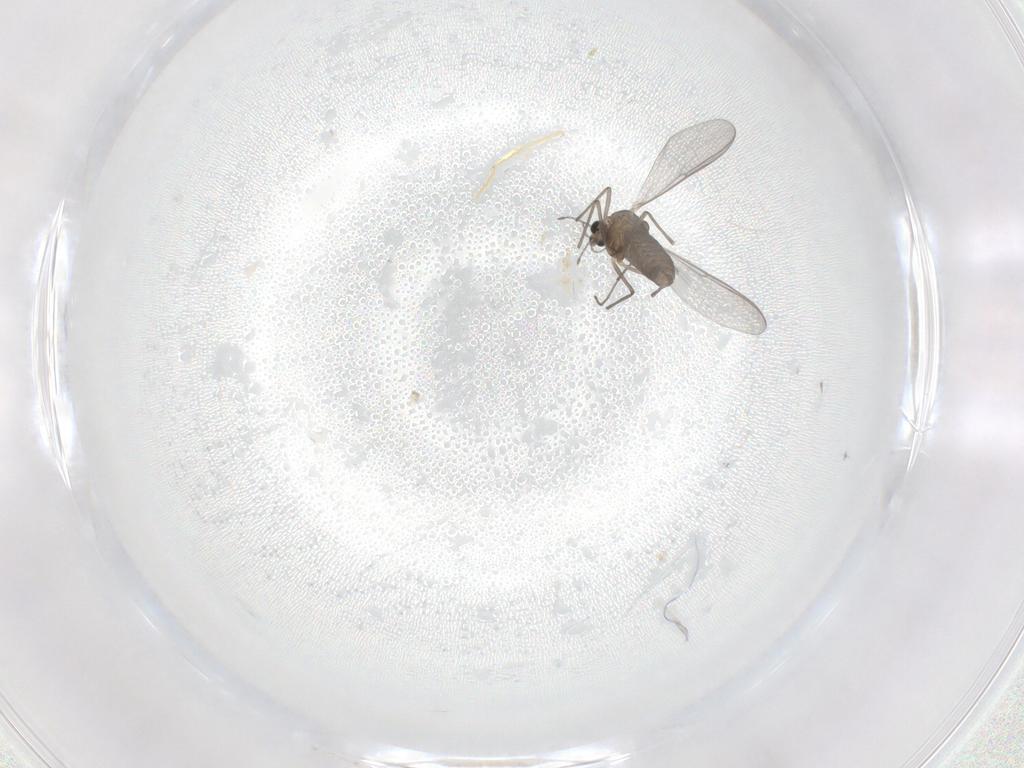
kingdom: Animalia
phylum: Arthropoda
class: Insecta
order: Diptera
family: Chironomidae
